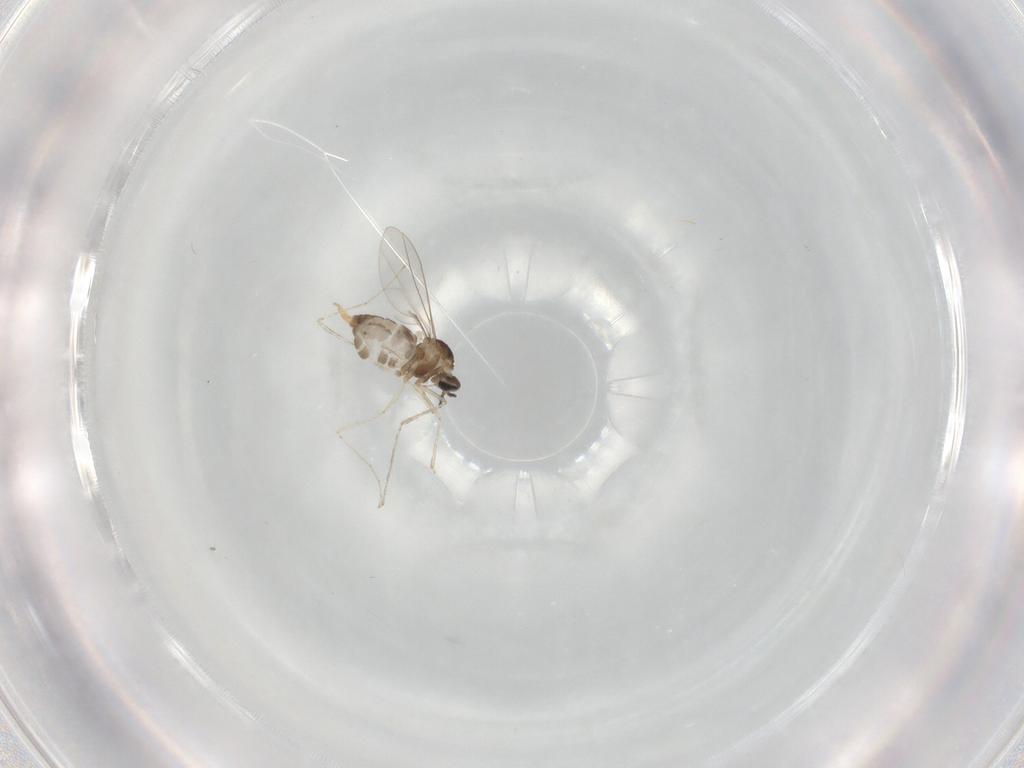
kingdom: Animalia
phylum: Arthropoda
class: Insecta
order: Diptera
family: Cecidomyiidae
